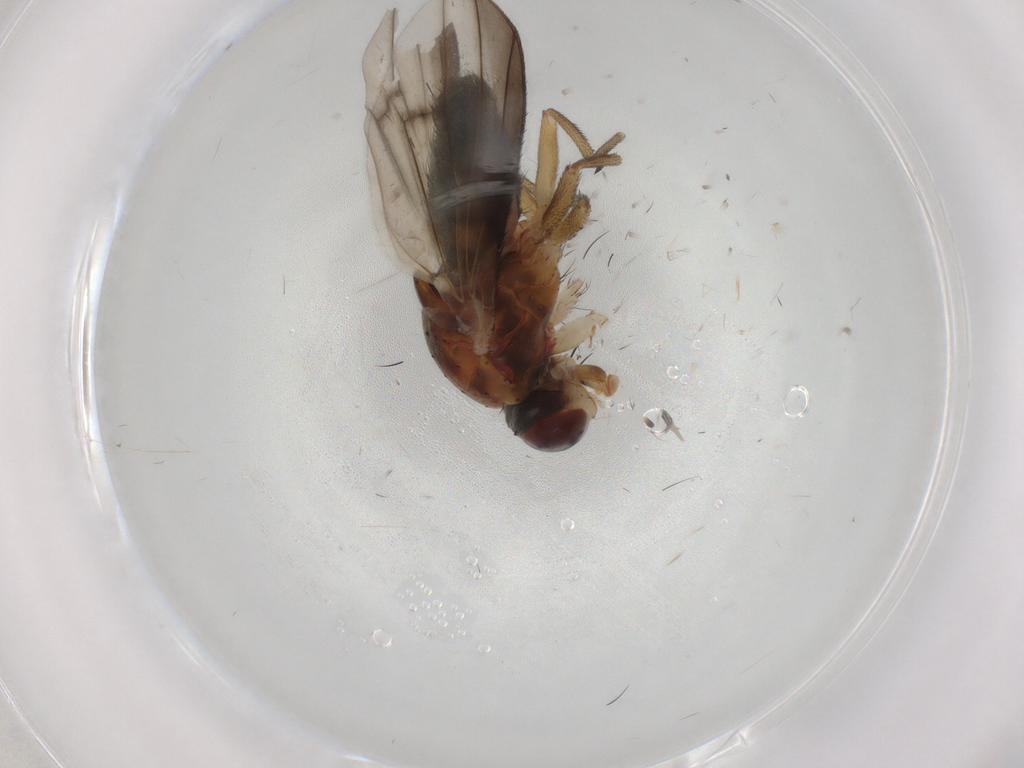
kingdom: Animalia
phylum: Arthropoda
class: Insecta
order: Diptera
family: Heleomyzidae
